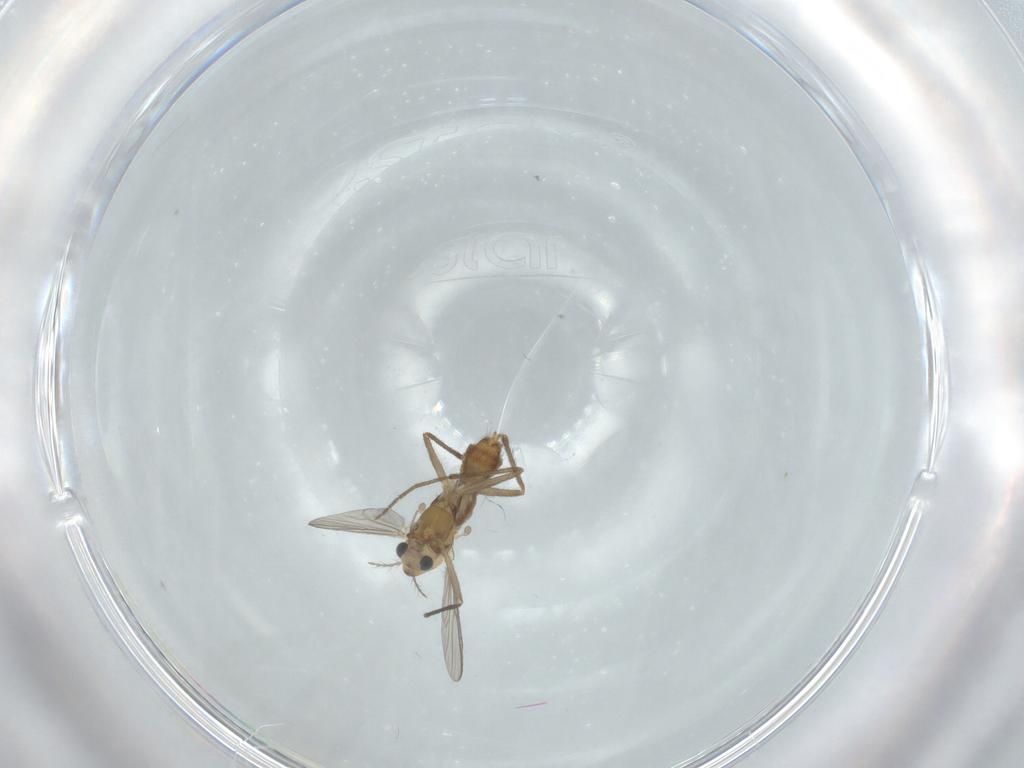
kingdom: Animalia
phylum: Arthropoda
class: Insecta
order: Diptera
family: Chironomidae
